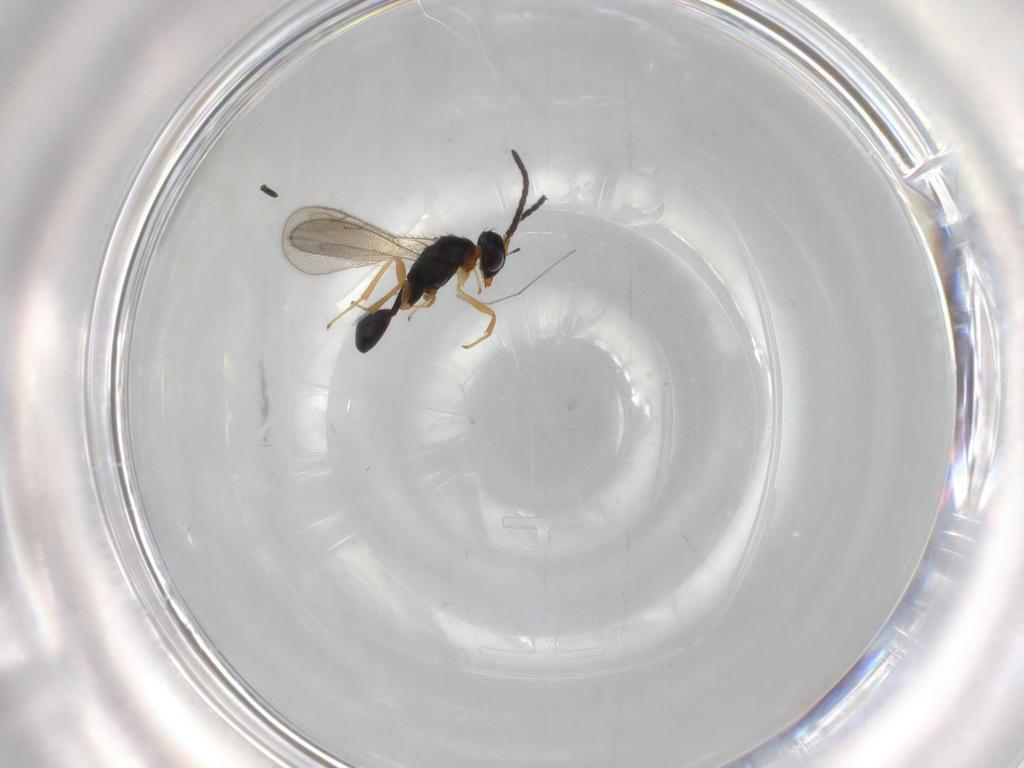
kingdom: Animalia
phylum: Arthropoda
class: Insecta
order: Hymenoptera
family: Diparidae
